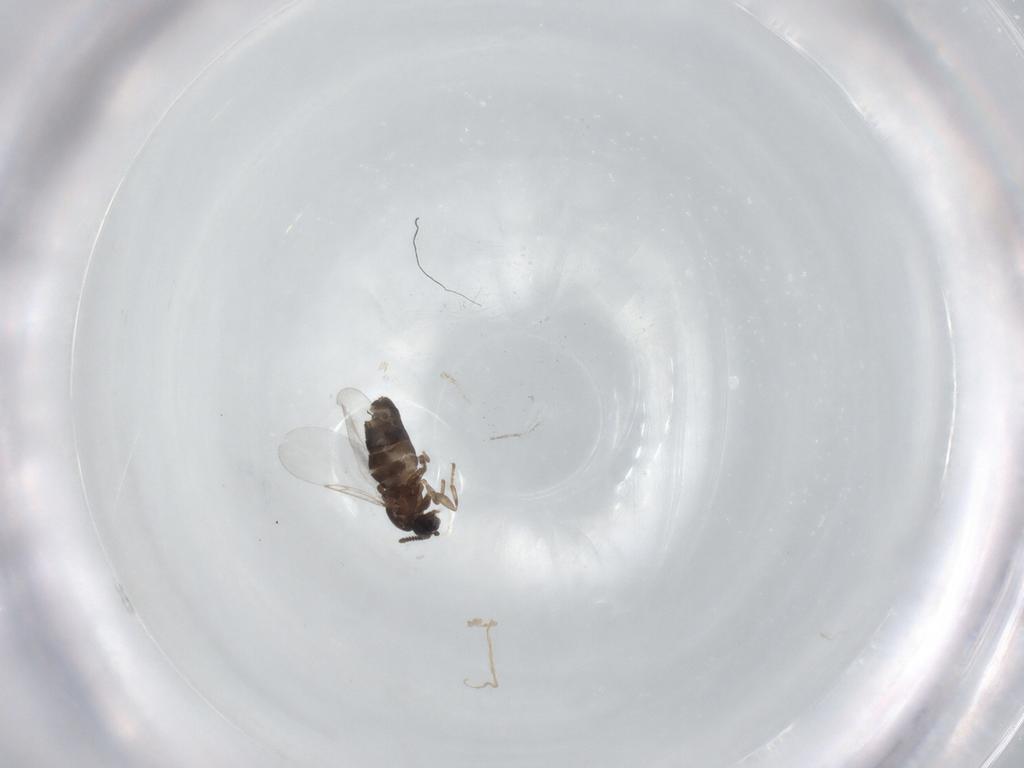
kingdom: Animalia
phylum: Arthropoda
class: Insecta
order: Diptera
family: Scatopsidae
